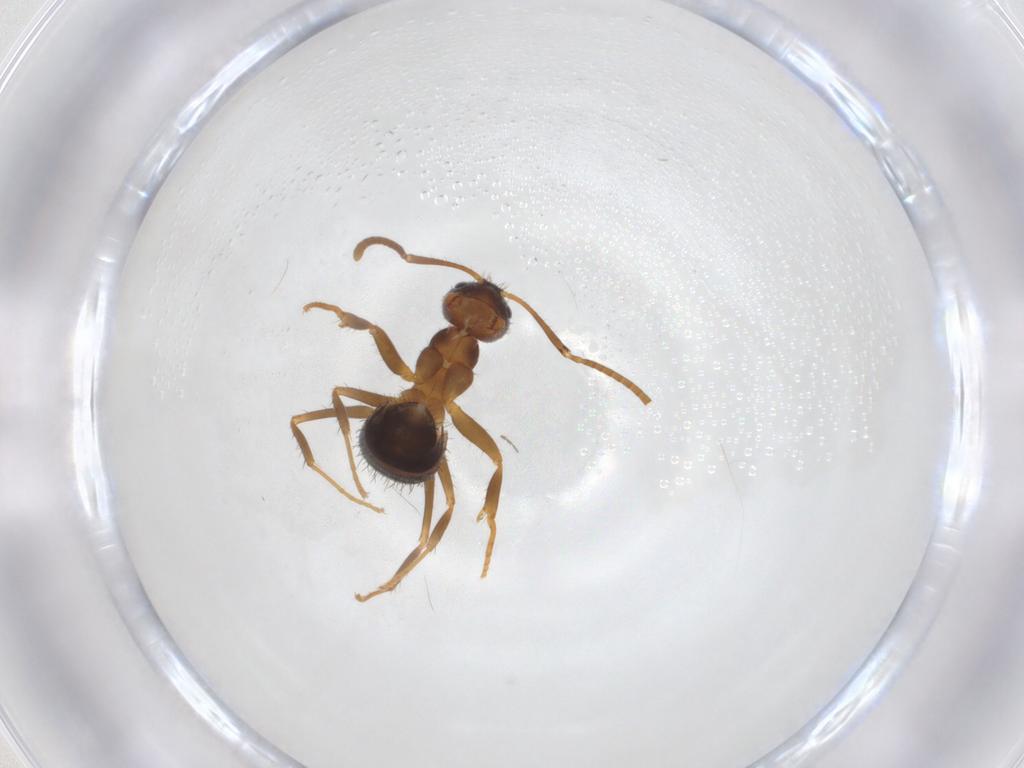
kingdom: Animalia
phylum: Arthropoda
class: Insecta
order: Hymenoptera
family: Formicidae
